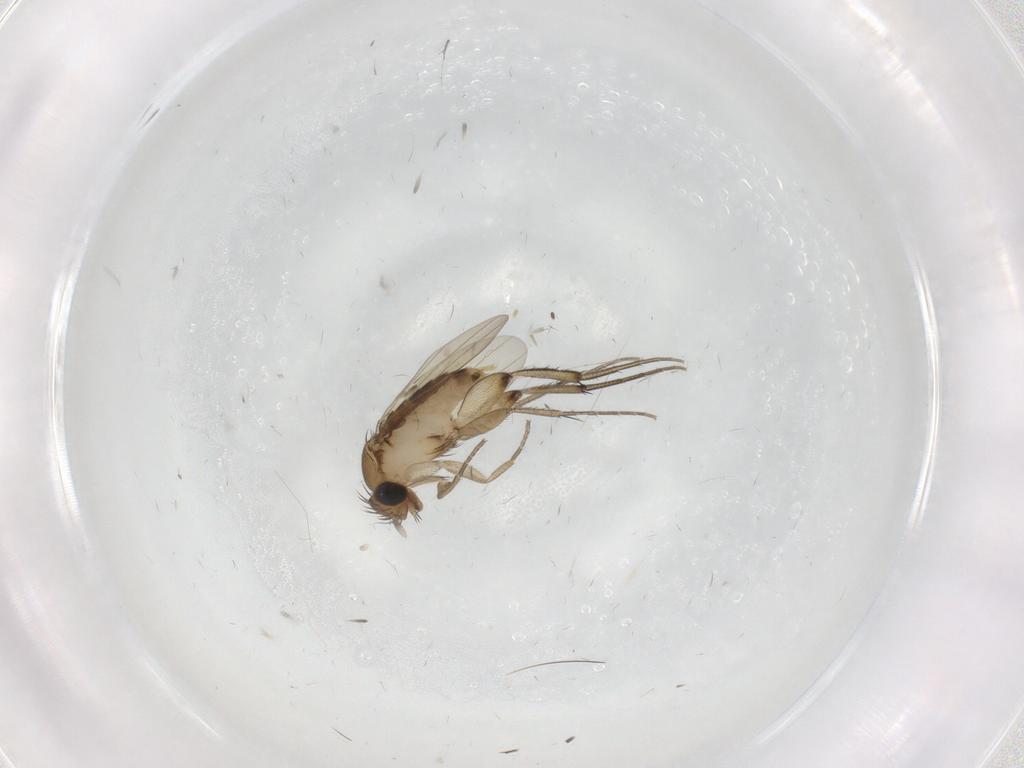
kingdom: Animalia
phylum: Arthropoda
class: Insecta
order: Diptera
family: Phoridae
